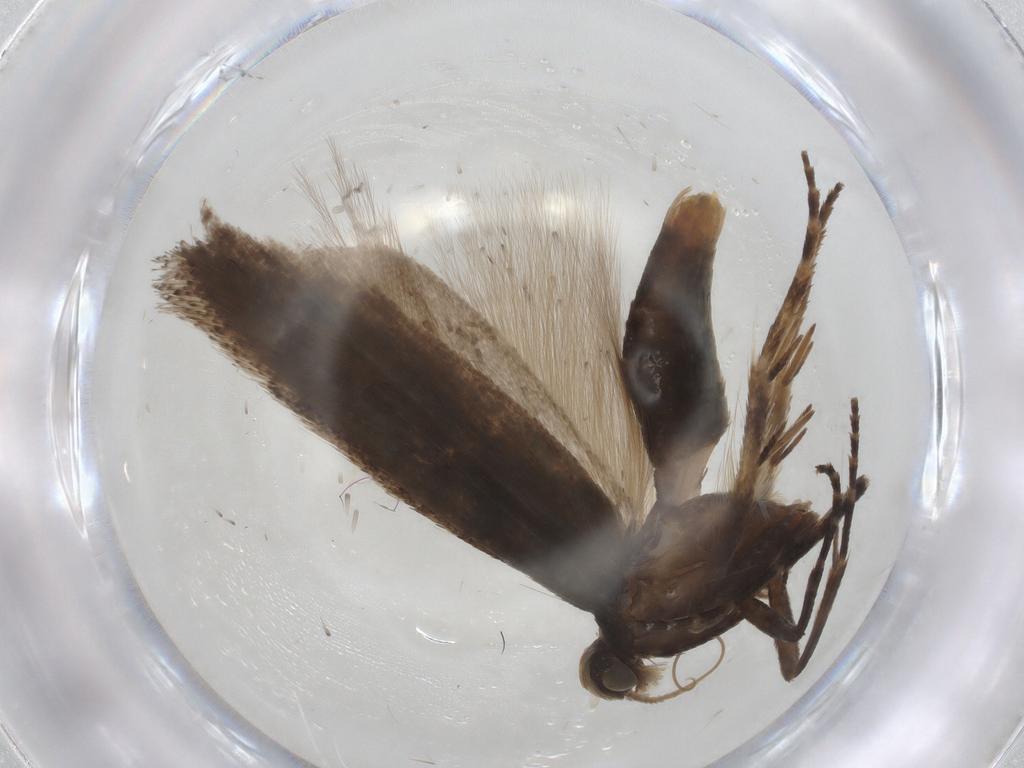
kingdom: Animalia
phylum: Arthropoda
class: Insecta
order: Lepidoptera
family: Gelechiidae
